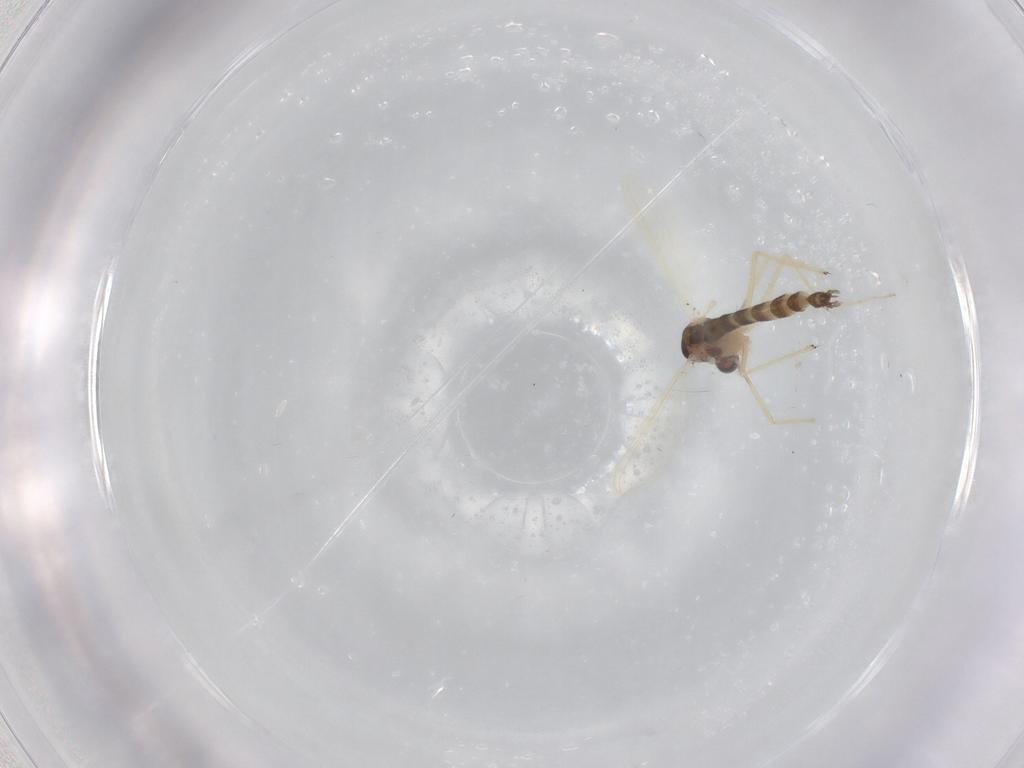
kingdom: Animalia
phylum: Arthropoda
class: Insecta
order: Diptera
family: Chironomidae
